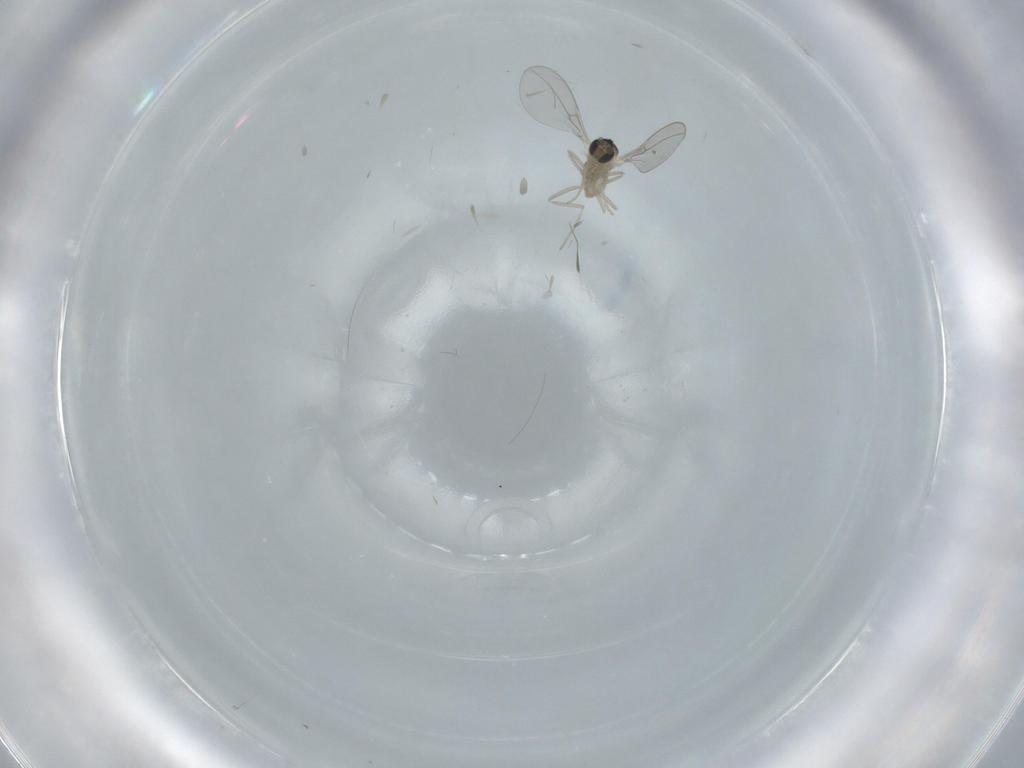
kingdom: Animalia
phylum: Arthropoda
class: Insecta
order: Diptera
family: Cecidomyiidae
